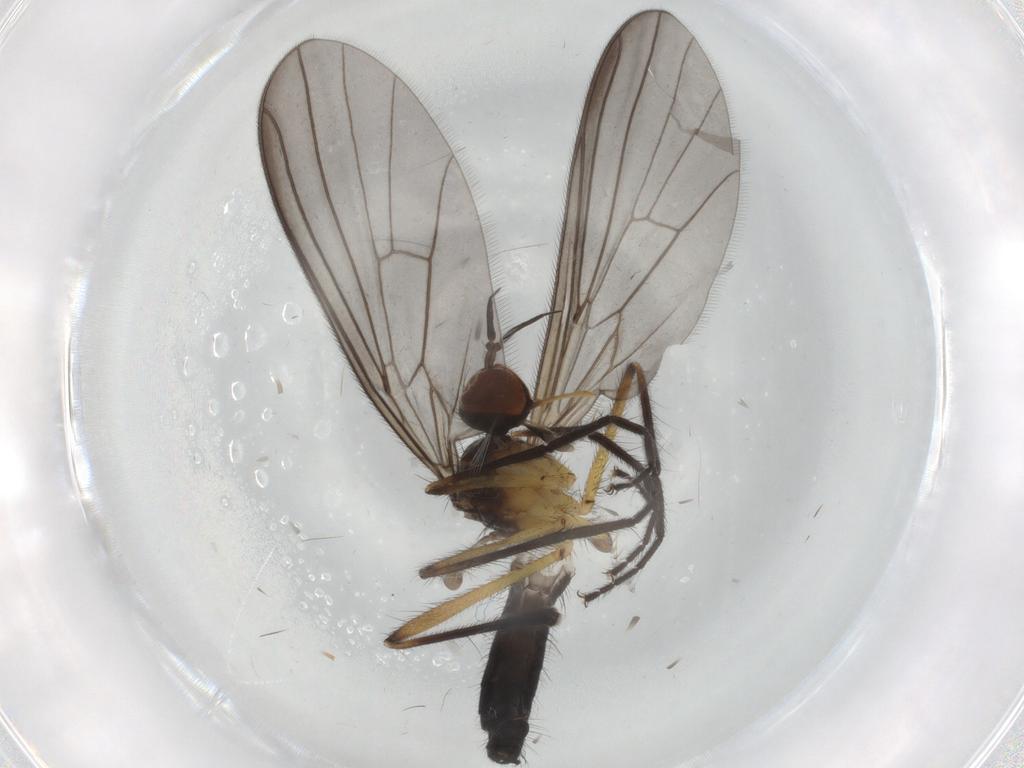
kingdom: Animalia
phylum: Arthropoda
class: Insecta
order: Diptera
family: Empididae
